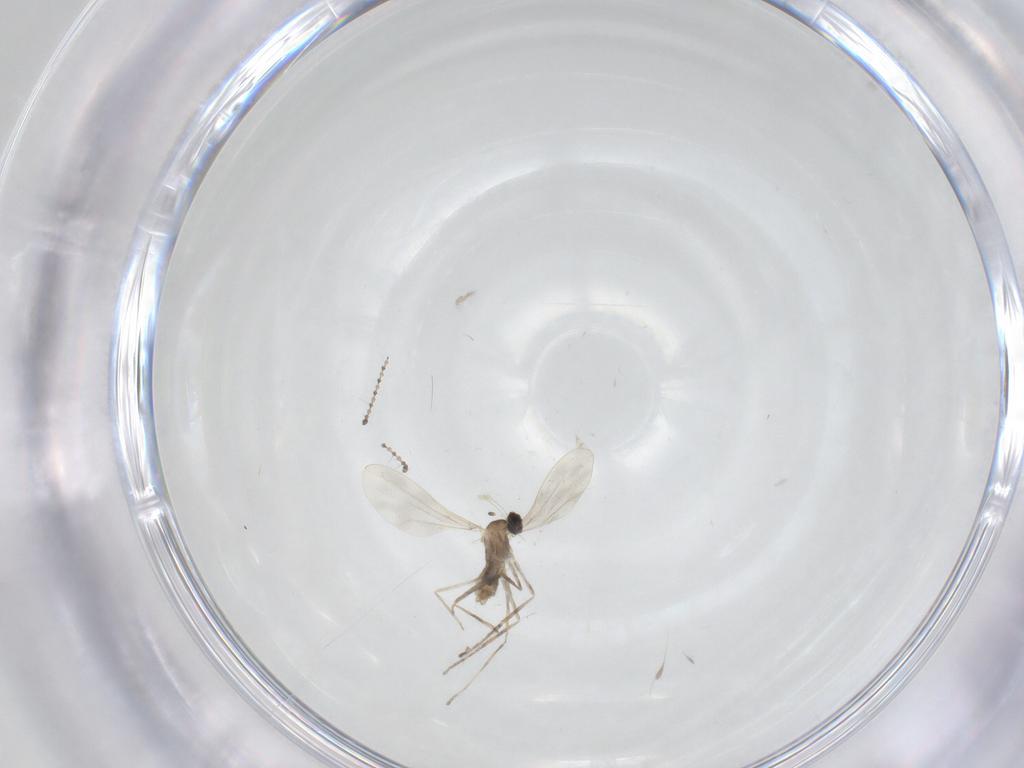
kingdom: Animalia
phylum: Arthropoda
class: Insecta
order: Diptera
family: Cecidomyiidae
